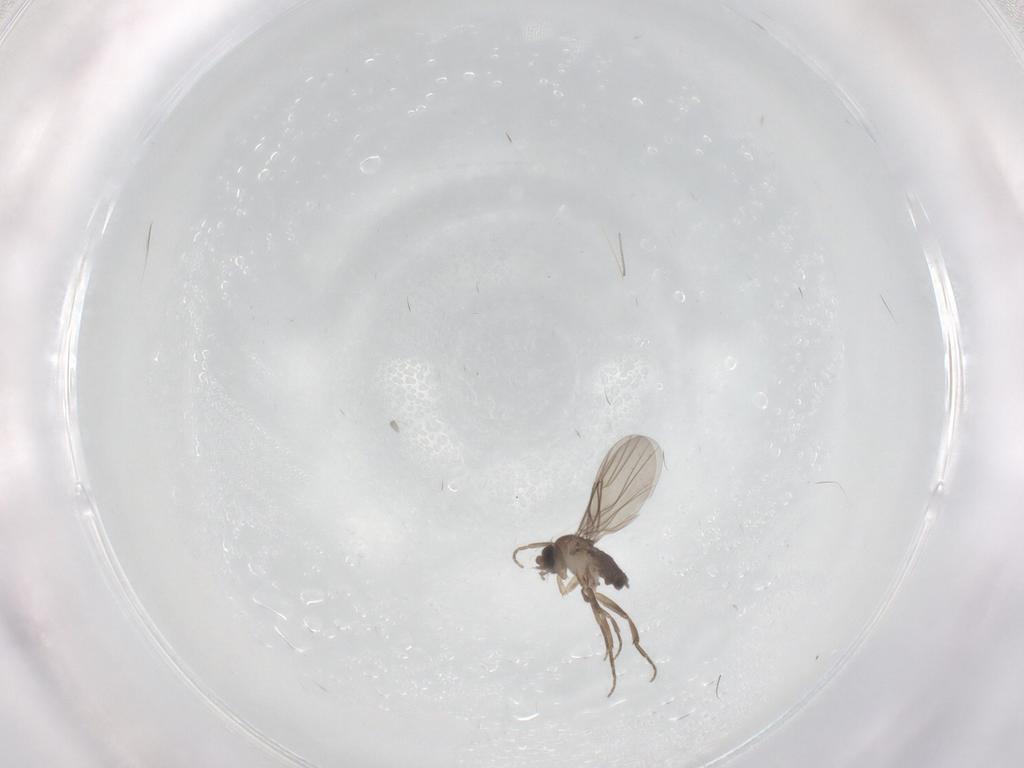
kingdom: Animalia
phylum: Arthropoda
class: Insecta
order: Diptera
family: Phoridae
